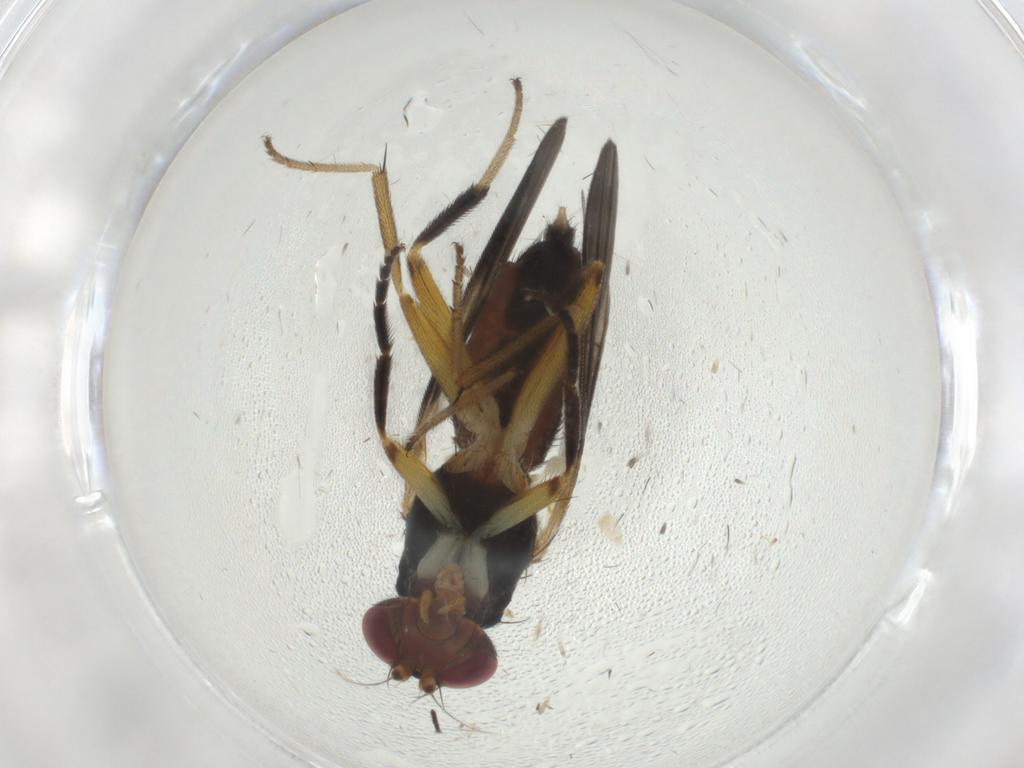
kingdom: Animalia
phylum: Arthropoda
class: Insecta
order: Diptera
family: Clusiidae
